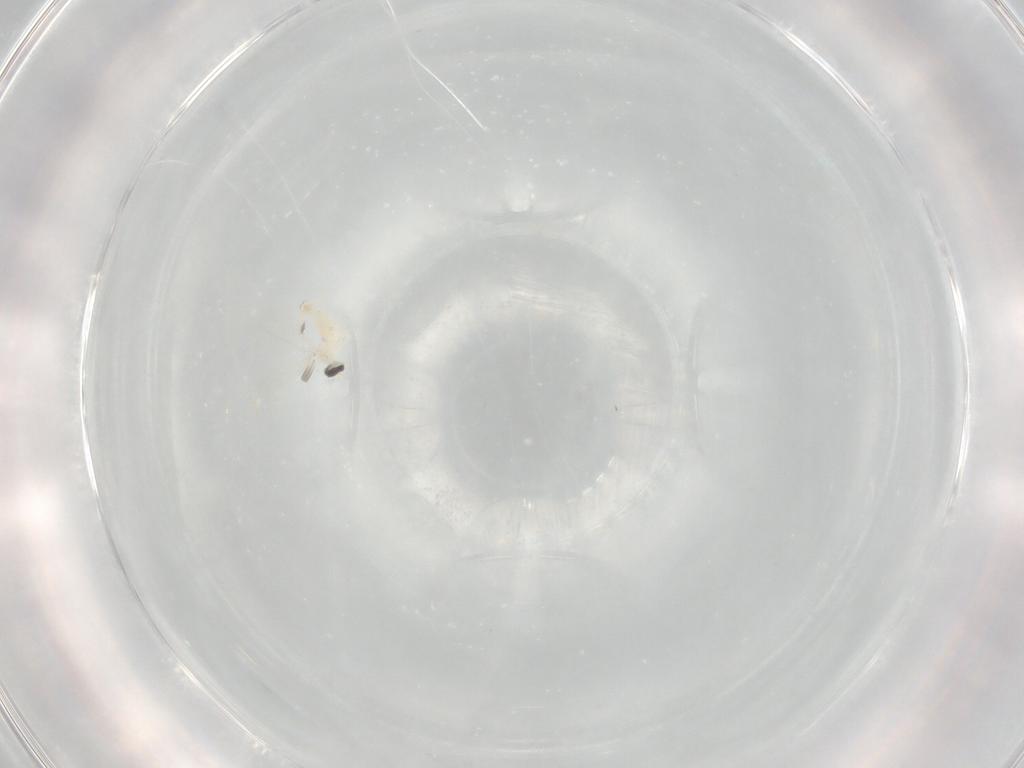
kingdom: Animalia
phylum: Arthropoda
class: Insecta
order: Diptera
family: Cecidomyiidae
